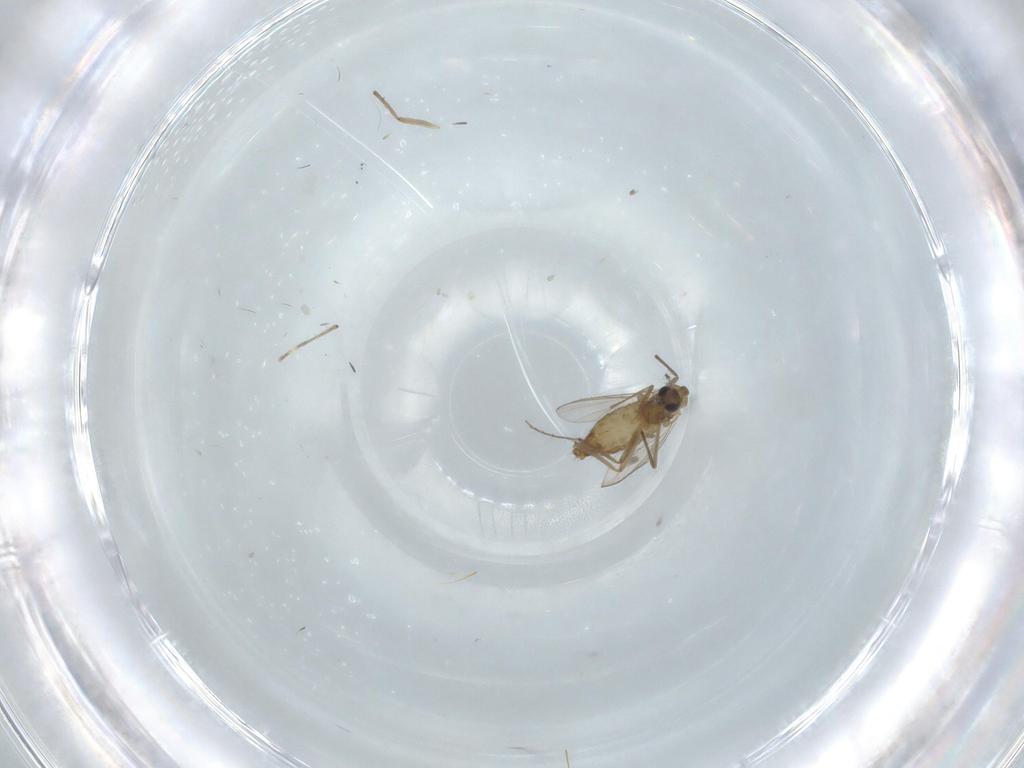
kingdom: Animalia
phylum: Arthropoda
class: Insecta
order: Diptera
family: Chironomidae
